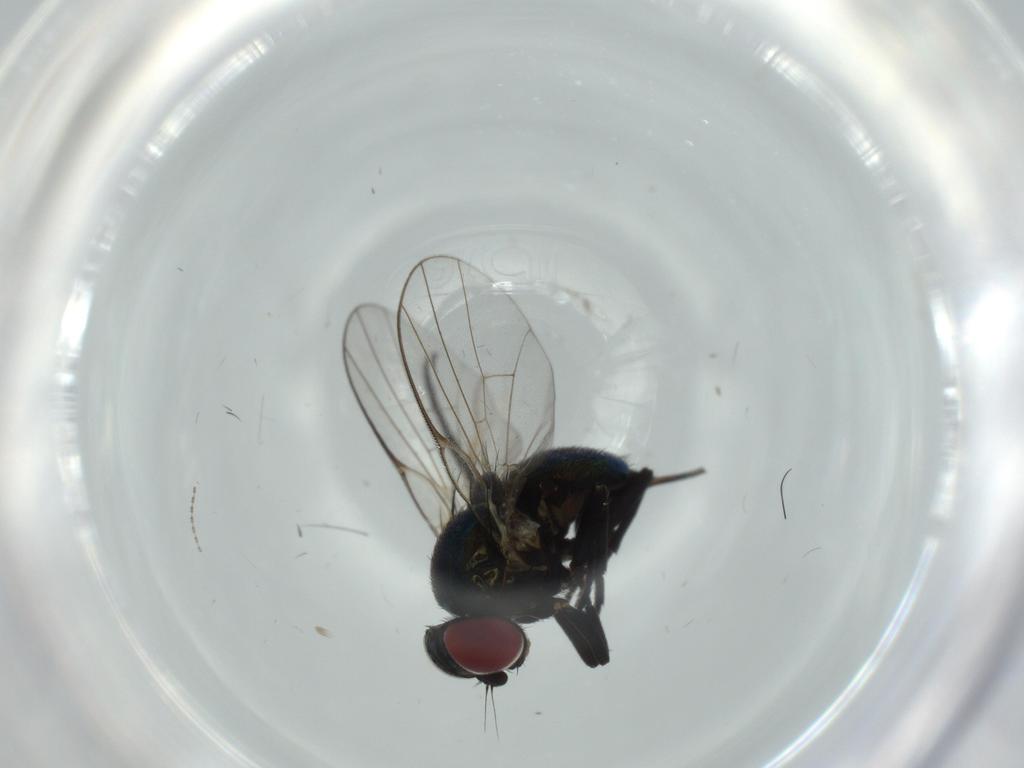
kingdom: Animalia
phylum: Arthropoda
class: Insecta
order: Diptera
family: Agromyzidae
